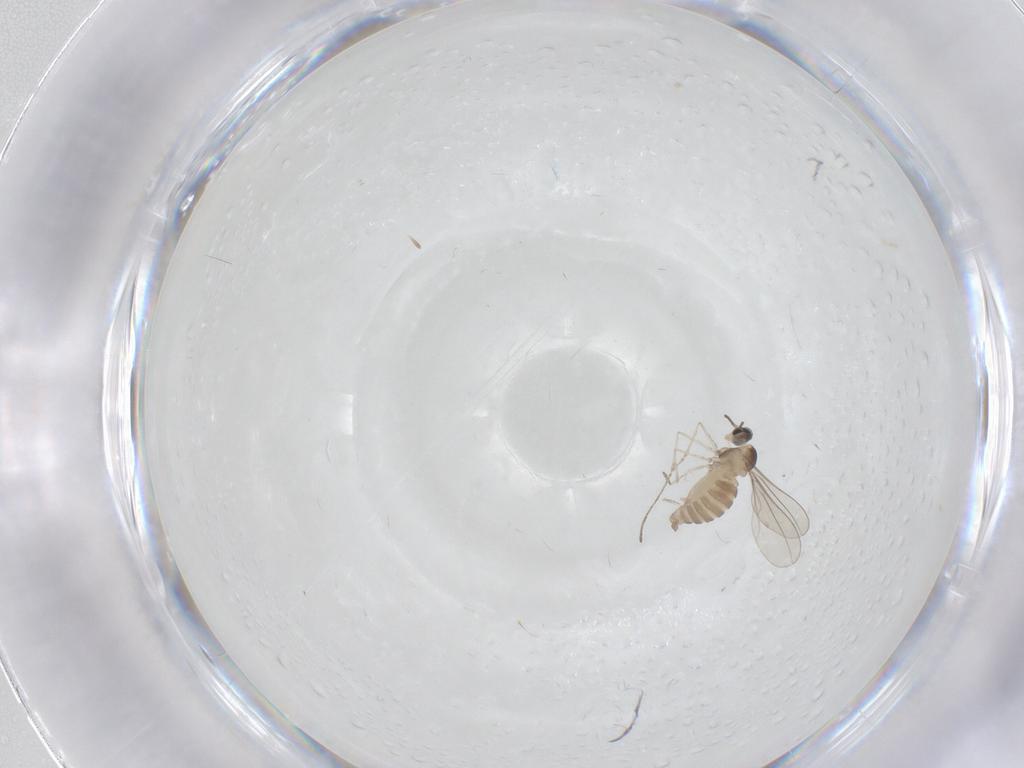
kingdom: Animalia
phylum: Arthropoda
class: Insecta
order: Diptera
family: Cecidomyiidae
